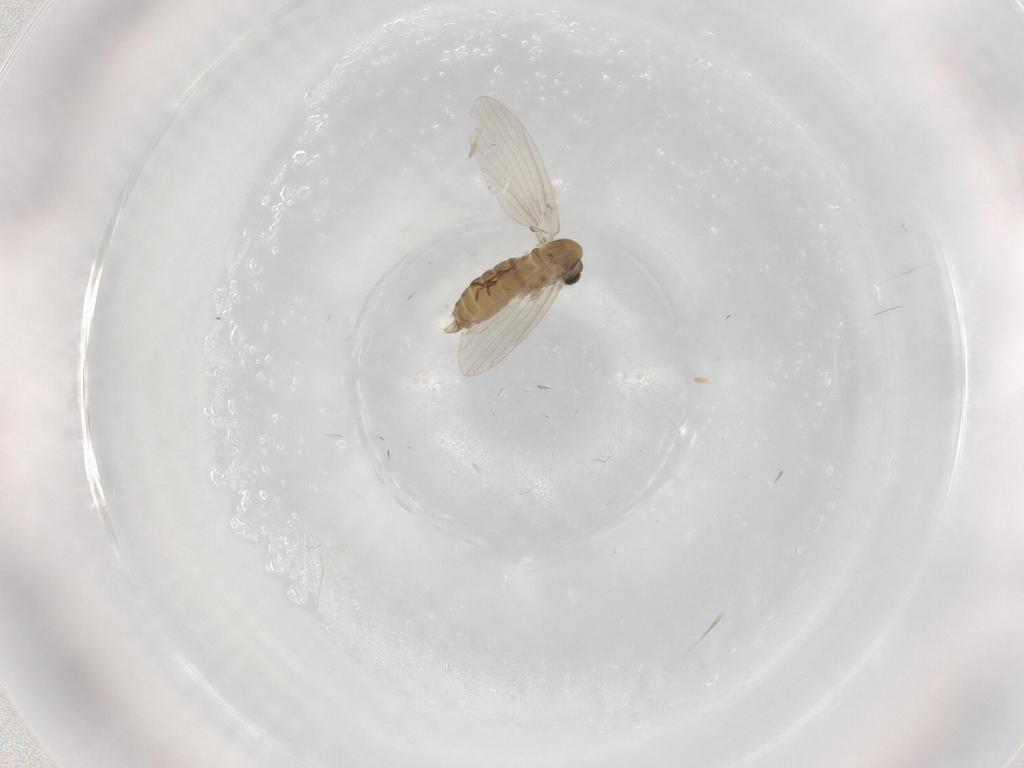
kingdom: Animalia
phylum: Arthropoda
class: Insecta
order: Diptera
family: Psychodidae
